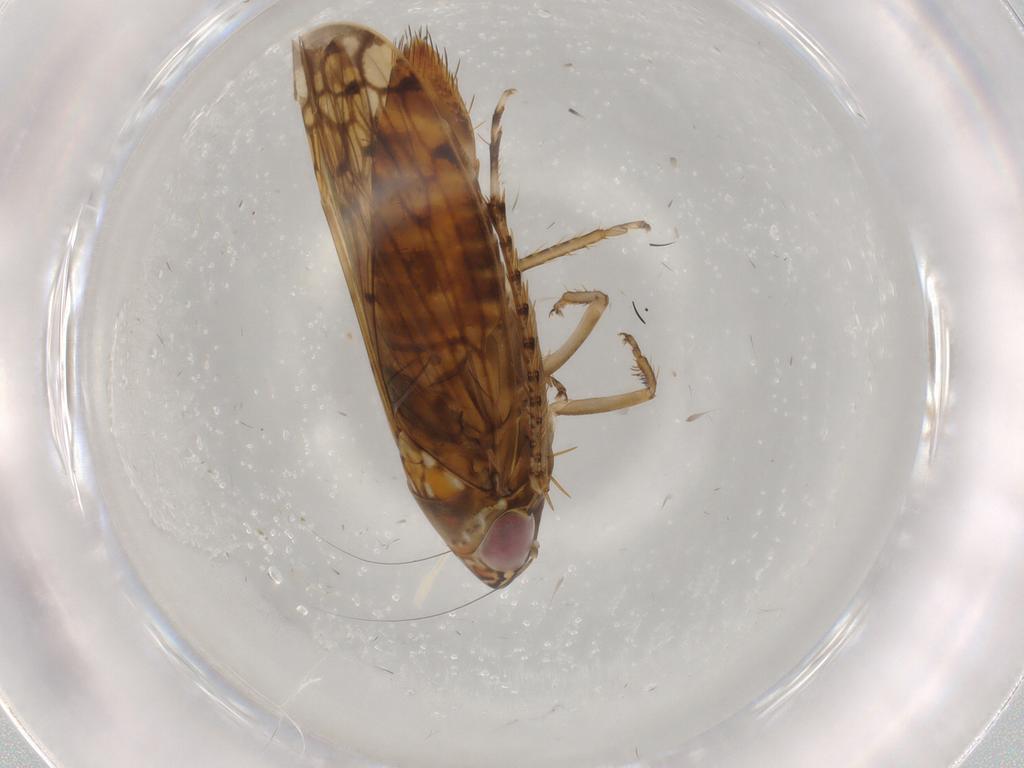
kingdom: Animalia
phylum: Arthropoda
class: Insecta
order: Hemiptera
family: Cicadellidae
